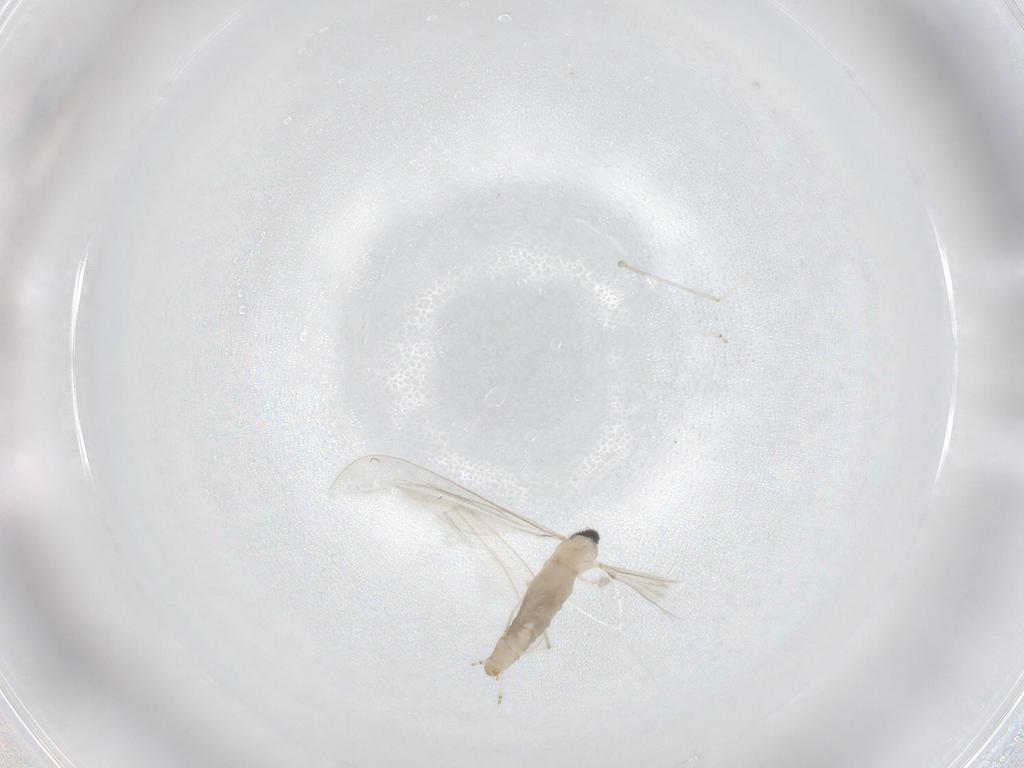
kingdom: Animalia
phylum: Arthropoda
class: Insecta
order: Diptera
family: Cecidomyiidae
